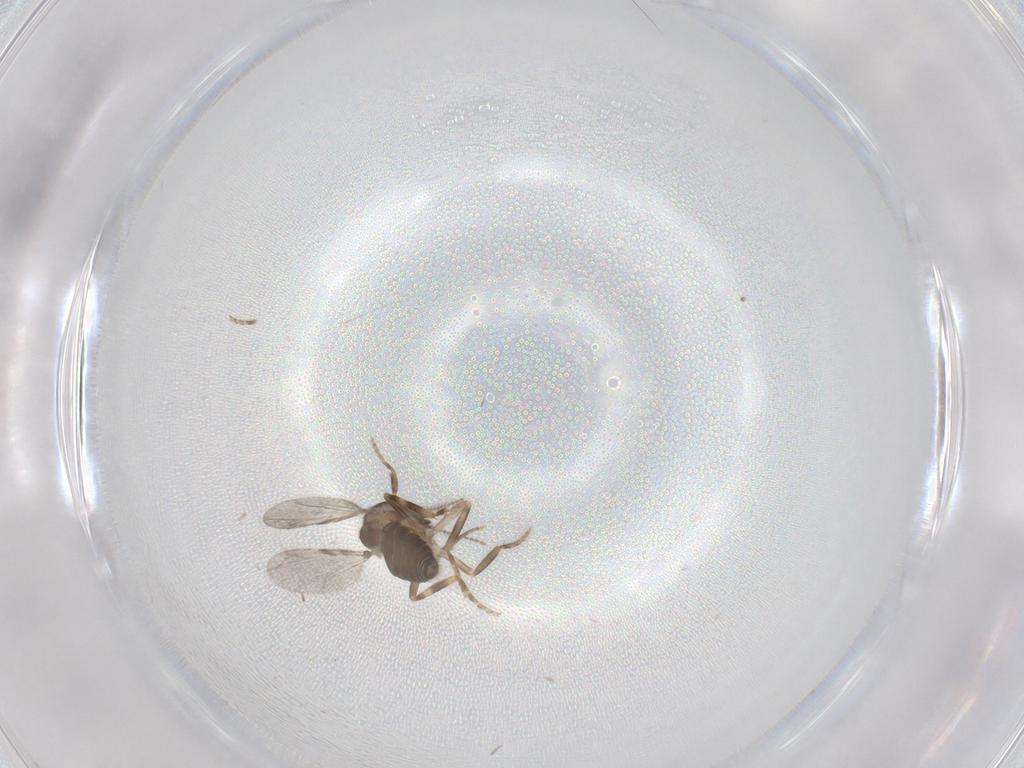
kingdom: Animalia
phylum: Arthropoda
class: Insecta
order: Diptera
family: Ceratopogonidae
